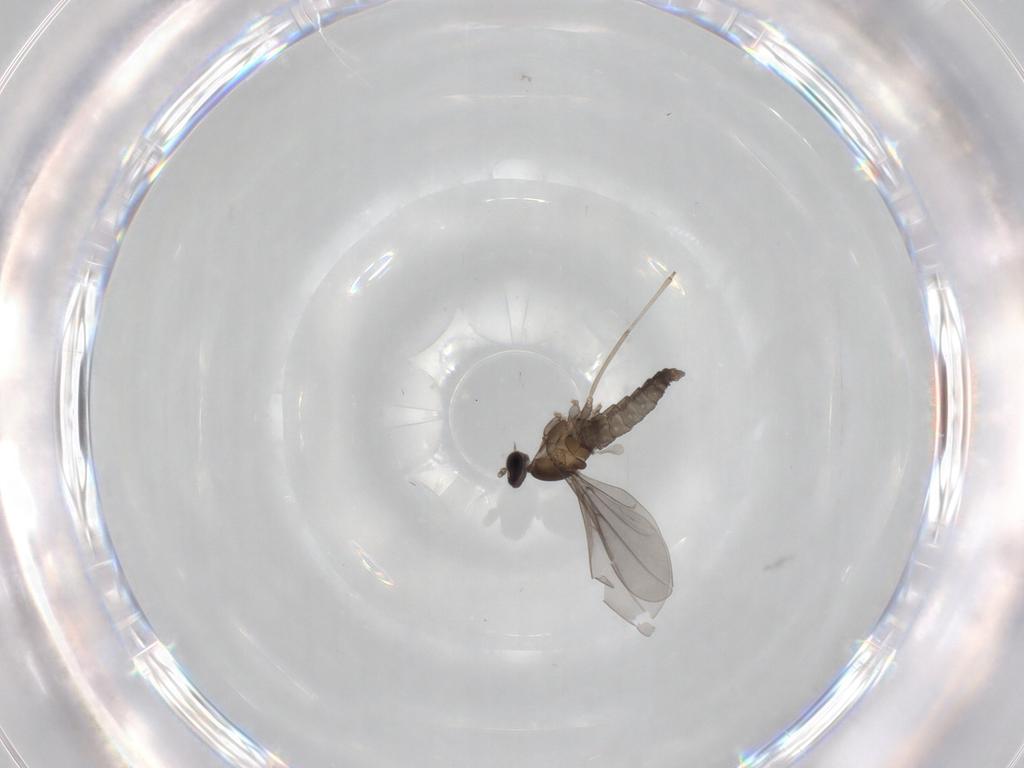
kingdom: Animalia
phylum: Arthropoda
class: Insecta
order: Diptera
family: Cecidomyiidae
